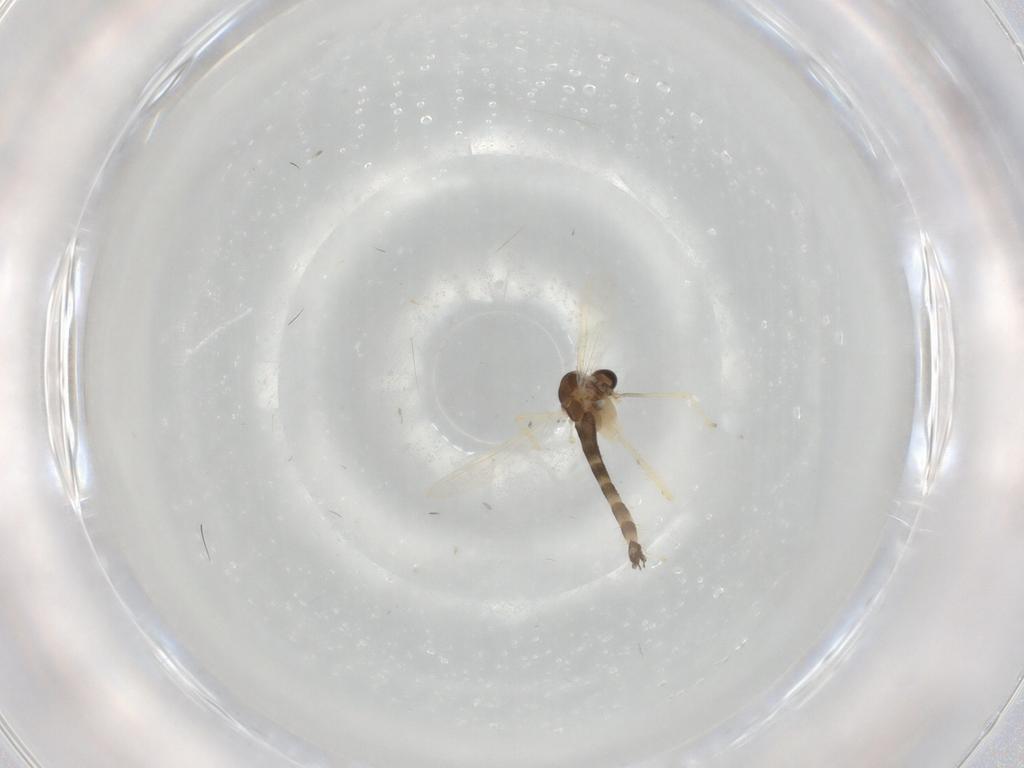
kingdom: Animalia
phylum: Arthropoda
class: Insecta
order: Diptera
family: Chironomidae
